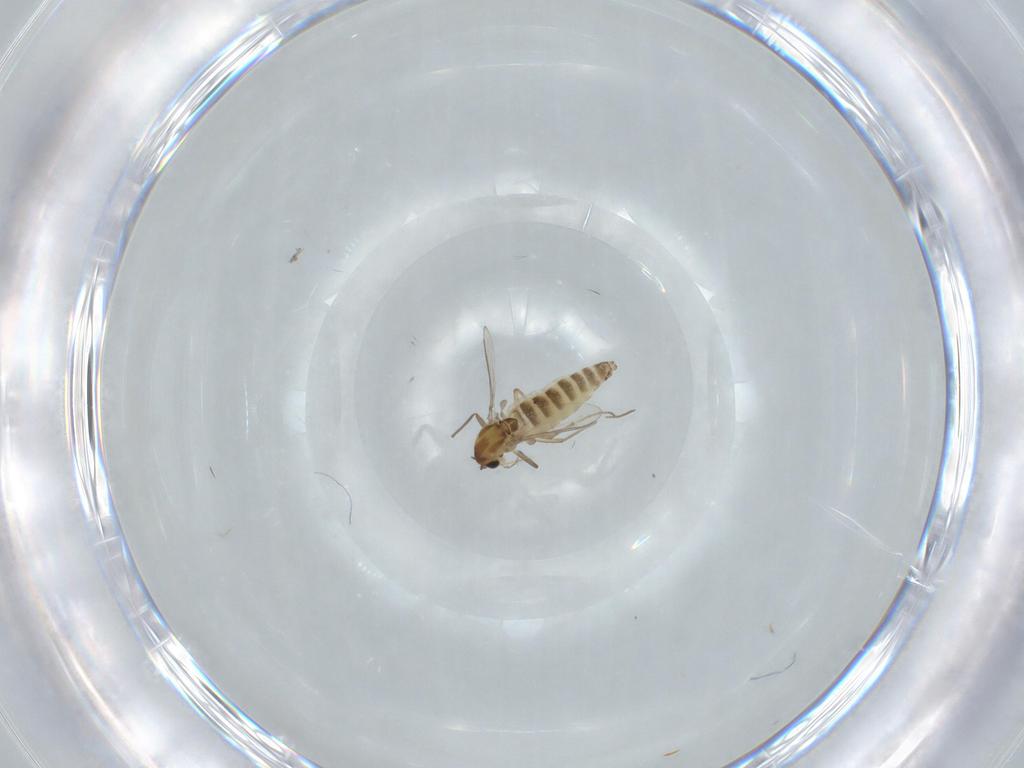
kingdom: Animalia
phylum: Arthropoda
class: Insecta
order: Diptera
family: Chironomidae
